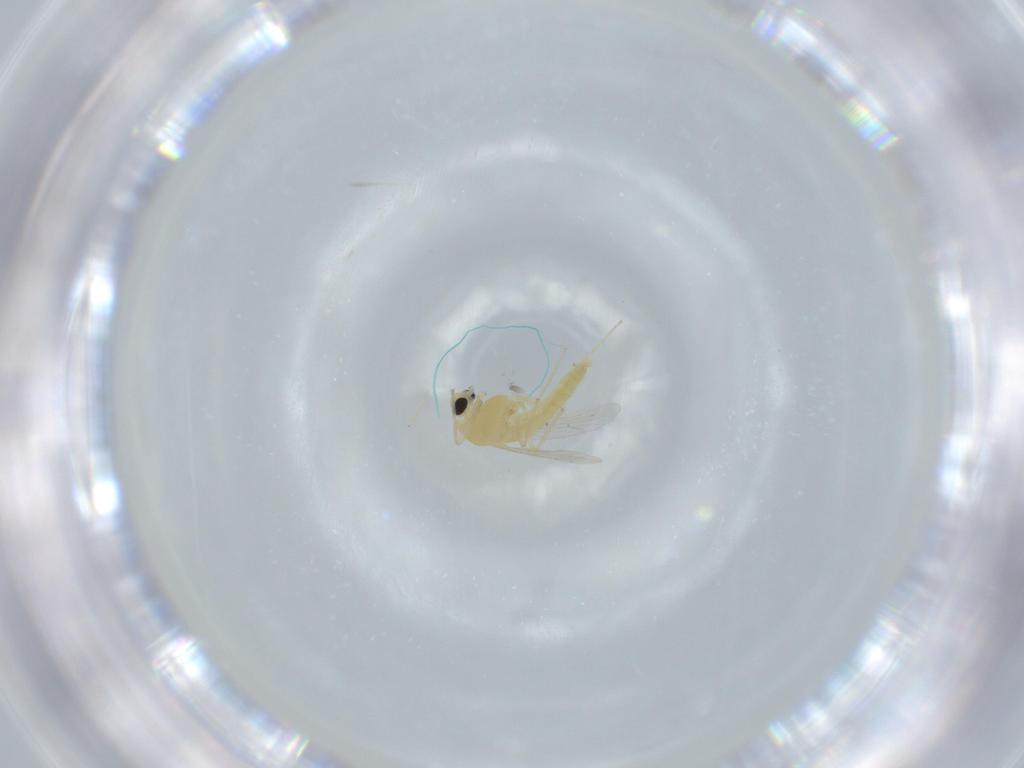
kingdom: Animalia
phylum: Arthropoda
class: Insecta
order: Diptera
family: Chironomidae
